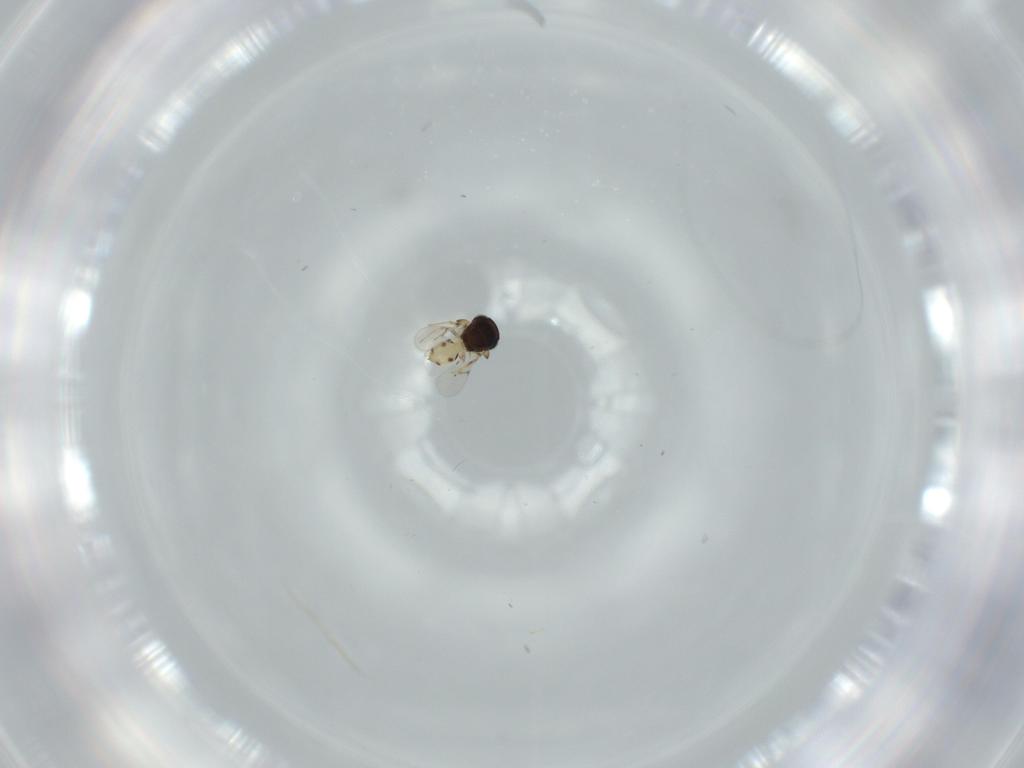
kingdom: Animalia
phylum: Arthropoda
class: Insecta
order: Hymenoptera
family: Scelionidae
